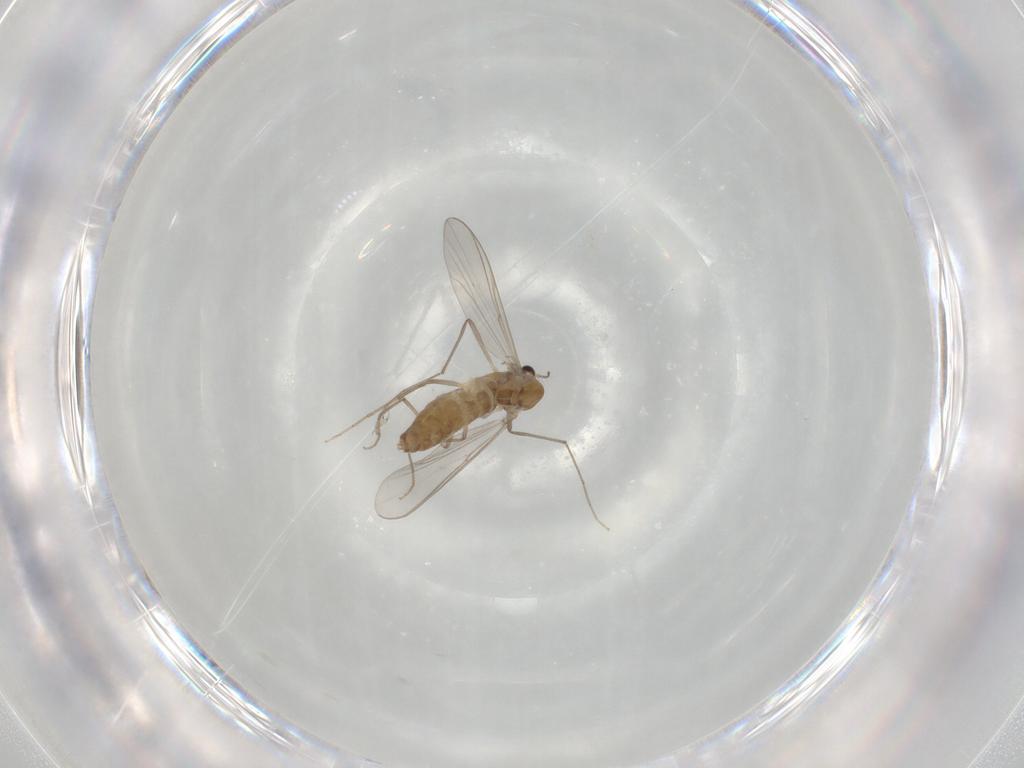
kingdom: Animalia
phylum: Arthropoda
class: Insecta
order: Diptera
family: Chironomidae
